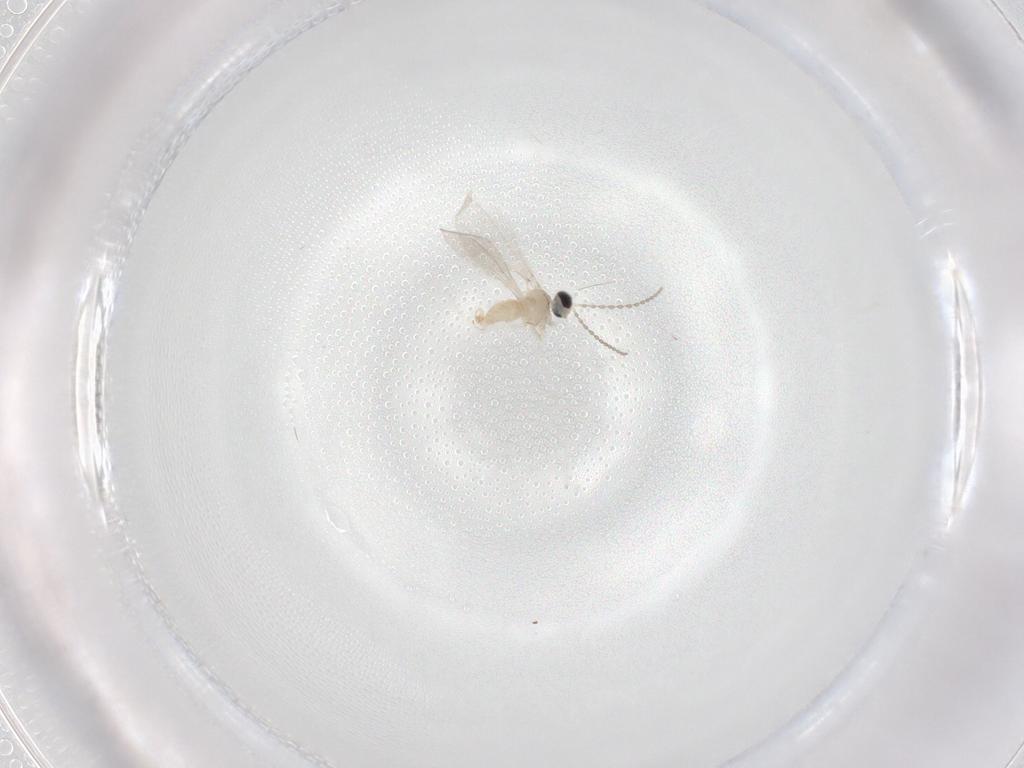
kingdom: Animalia
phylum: Arthropoda
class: Insecta
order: Diptera
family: Cecidomyiidae
